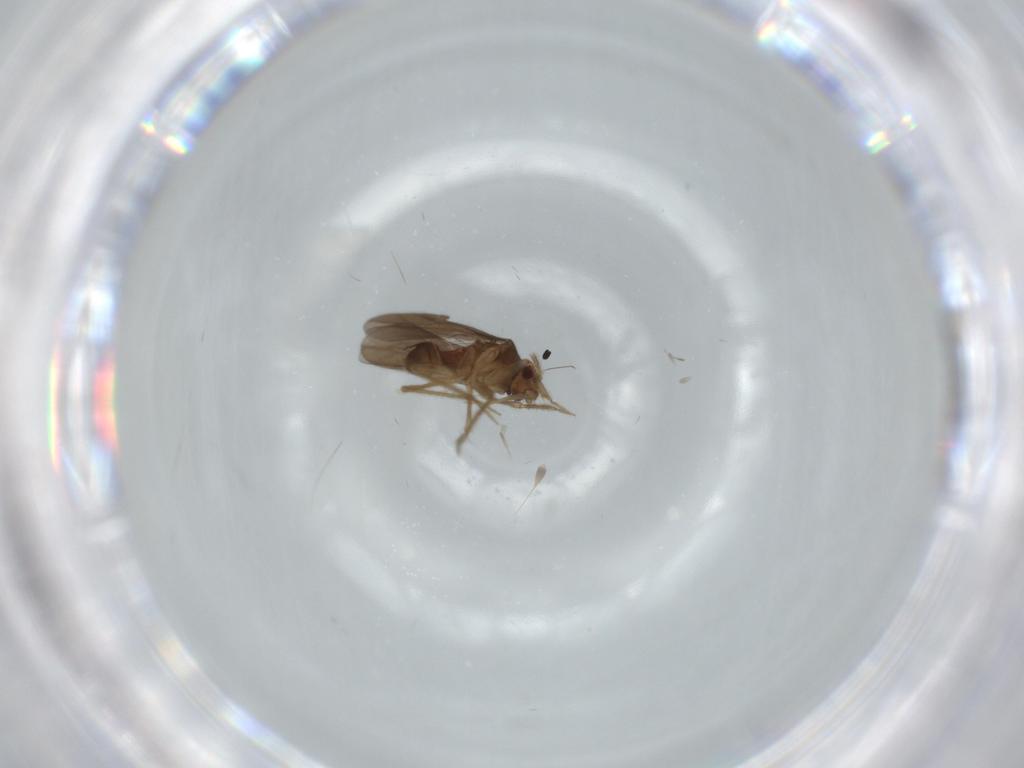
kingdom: Animalia
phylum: Arthropoda
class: Insecta
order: Hemiptera
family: Ceratocombidae
